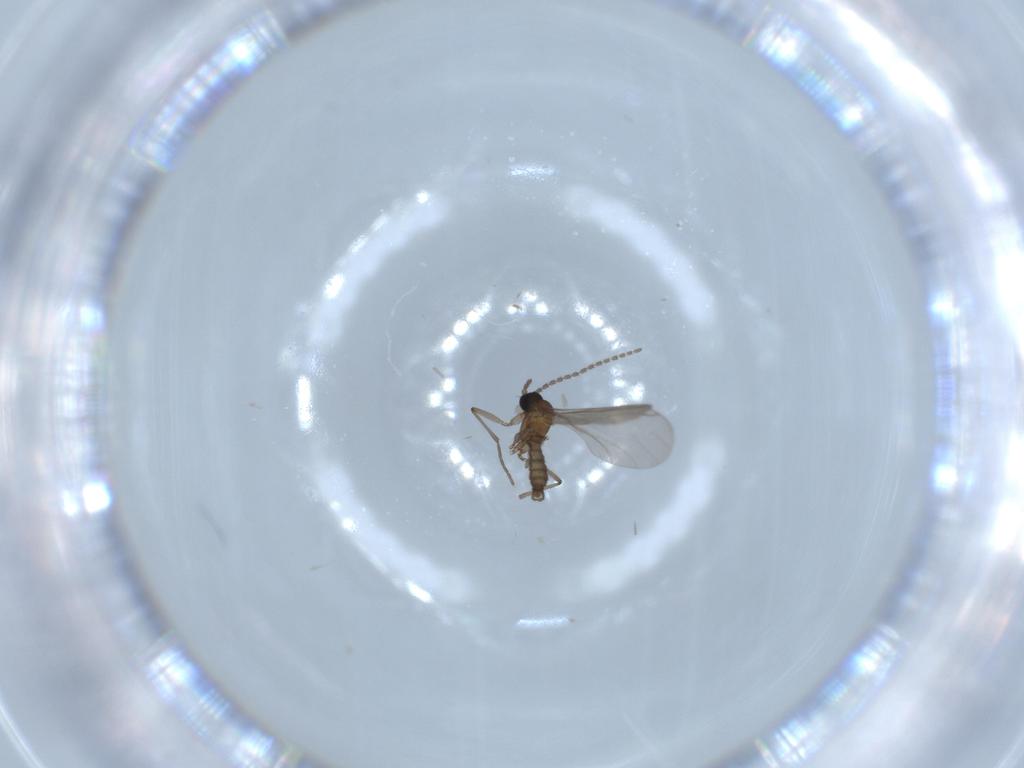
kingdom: Animalia
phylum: Arthropoda
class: Insecta
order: Diptera
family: Sciaridae
